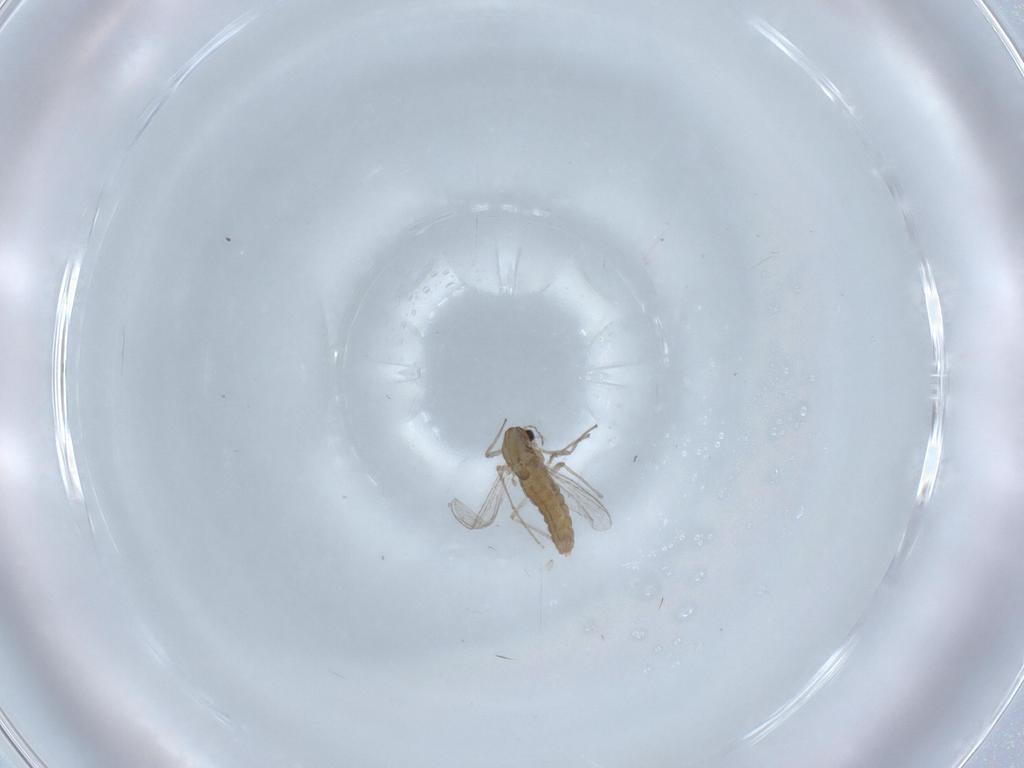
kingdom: Animalia
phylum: Arthropoda
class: Insecta
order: Diptera
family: Chironomidae
